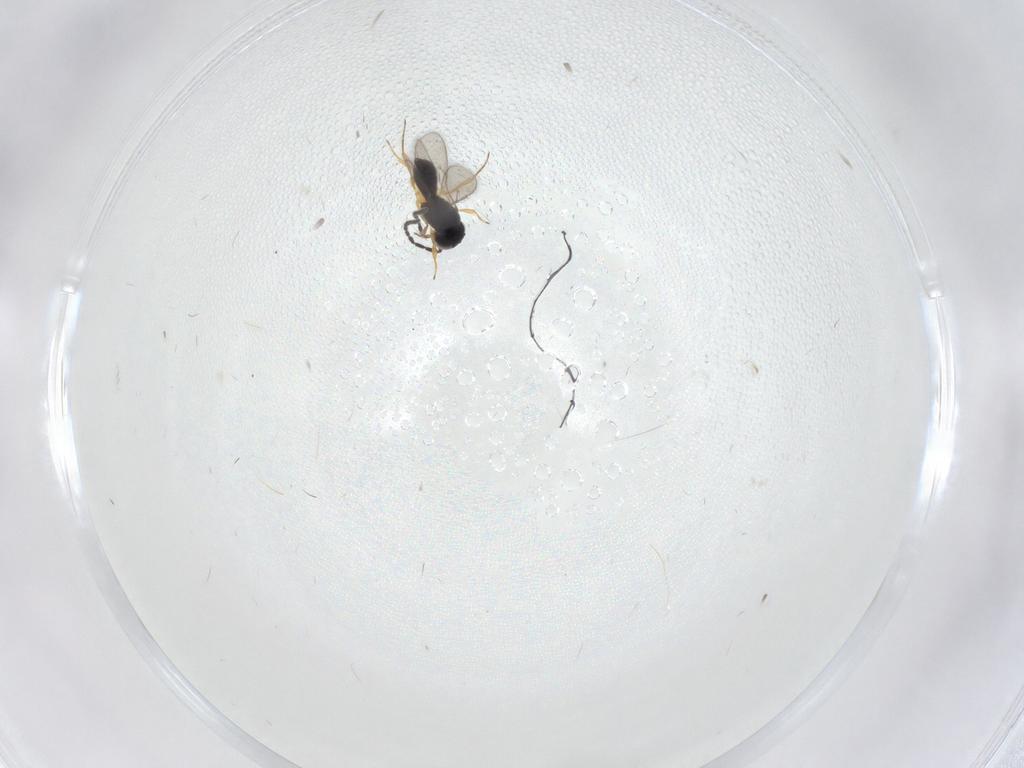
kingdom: Animalia
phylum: Arthropoda
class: Insecta
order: Hymenoptera
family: Scelionidae
